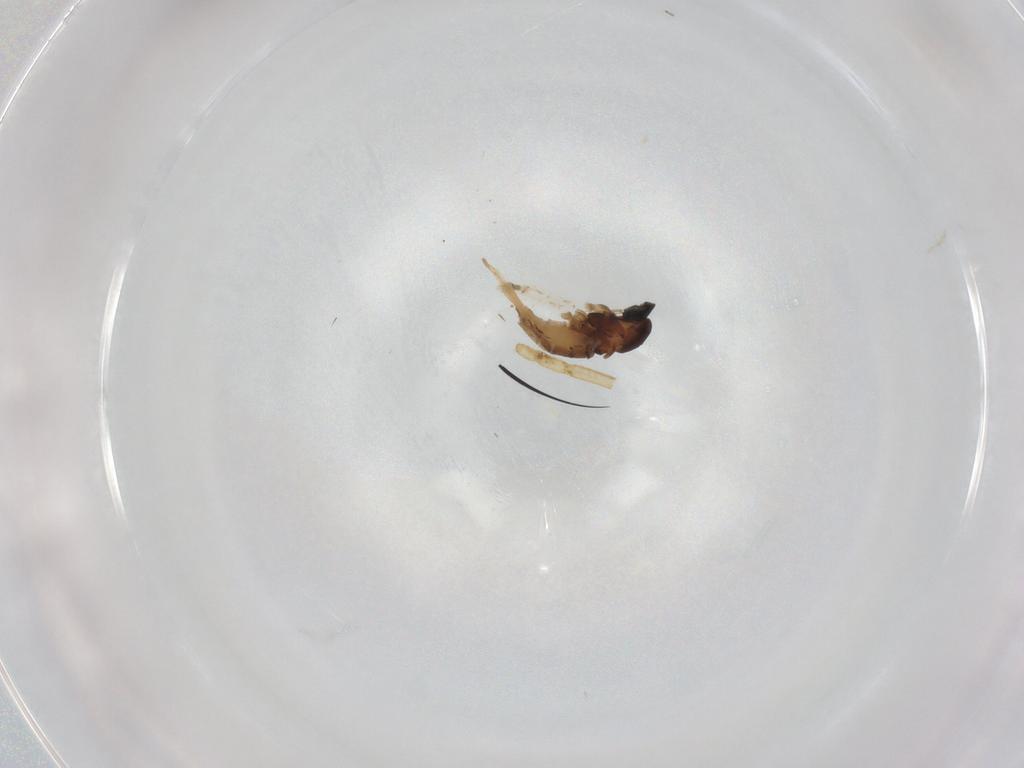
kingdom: Animalia
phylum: Arthropoda
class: Insecta
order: Diptera
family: Cecidomyiidae
